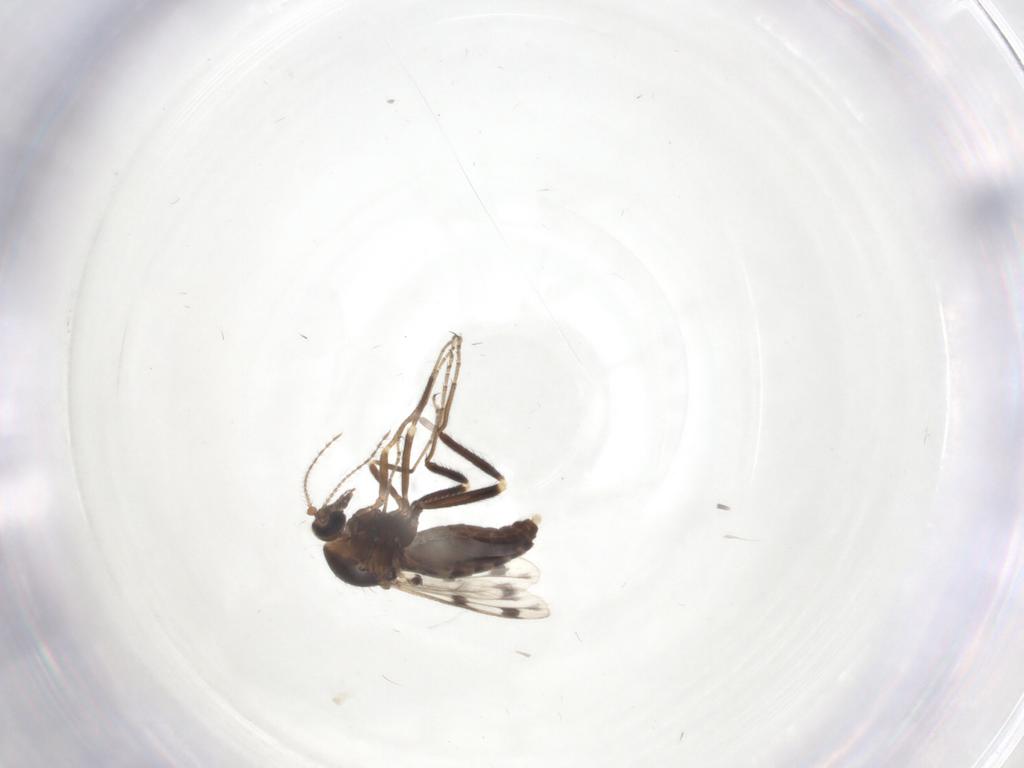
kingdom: Animalia
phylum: Arthropoda
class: Insecta
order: Diptera
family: Ceratopogonidae
